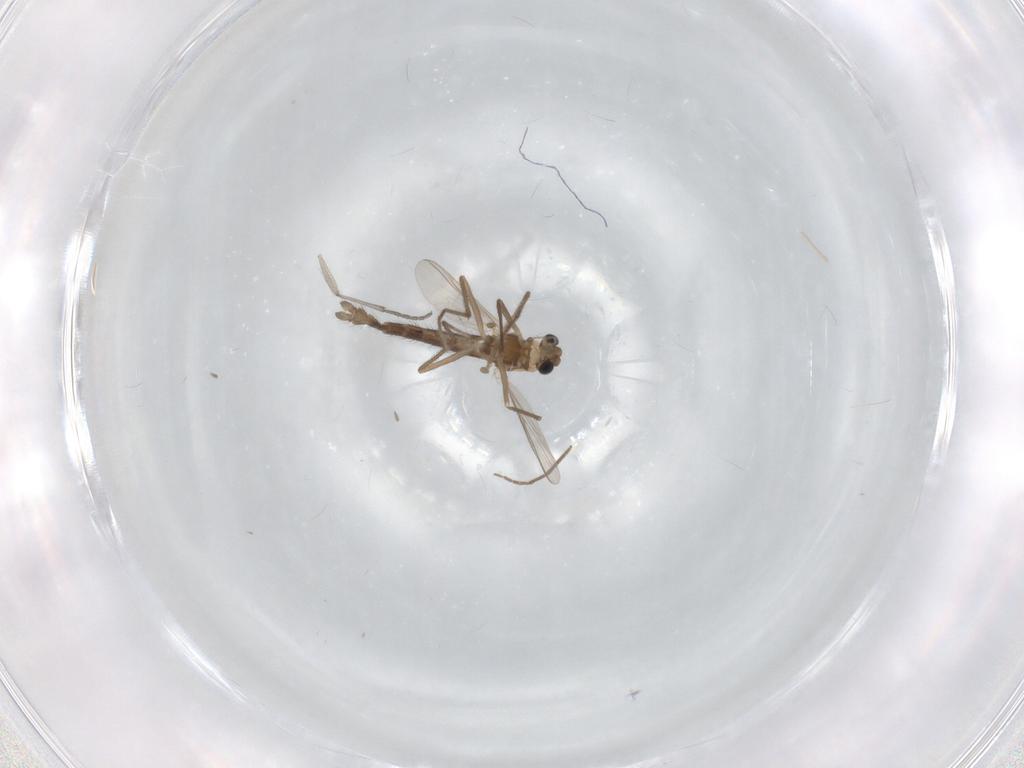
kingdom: Animalia
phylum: Arthropoda
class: Insecta
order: Diptera
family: Chironomidae
